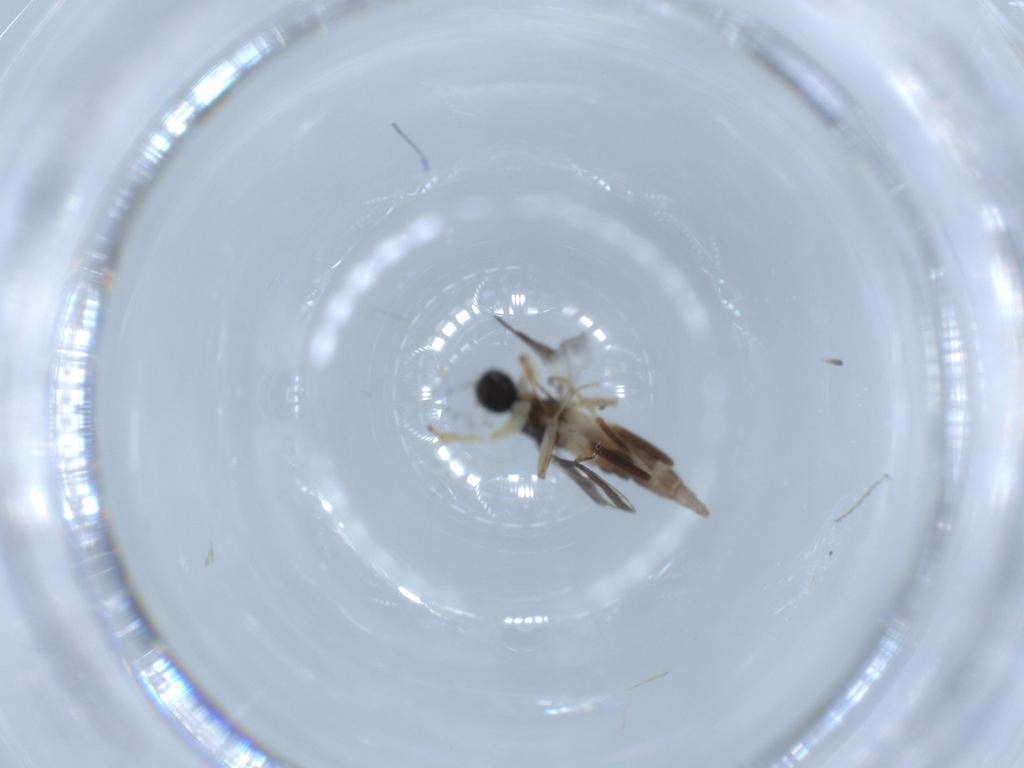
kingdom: Animalia
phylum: Arthropoda
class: Insecta
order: Diptera
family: Hybotidae
